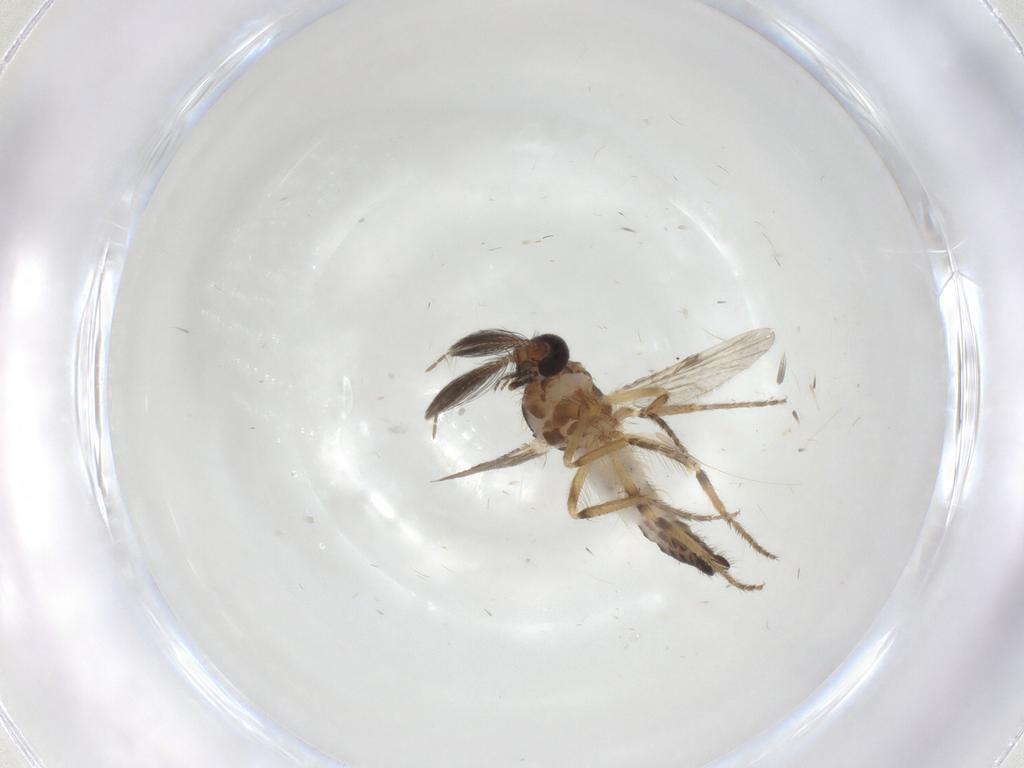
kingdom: Animalia
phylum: Arthropoda
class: Insecta
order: Diptera
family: Ceratopogonidae
